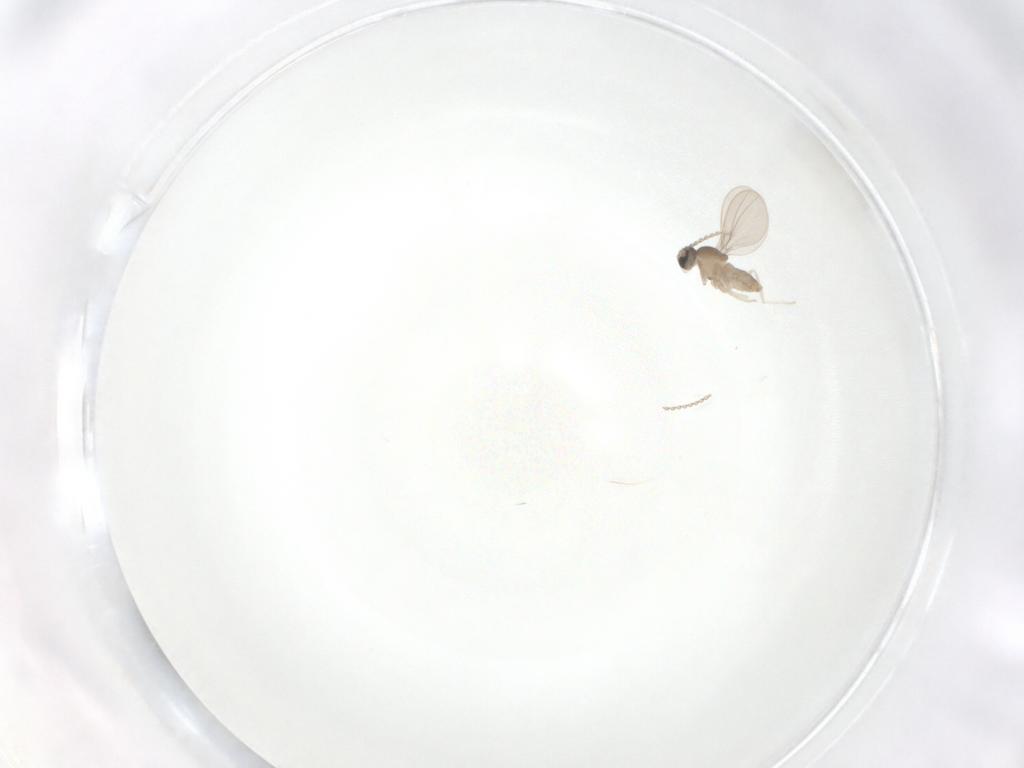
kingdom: Animalia
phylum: Arthropoda
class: Insecta
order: Diptera
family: Cecidomyiidae
